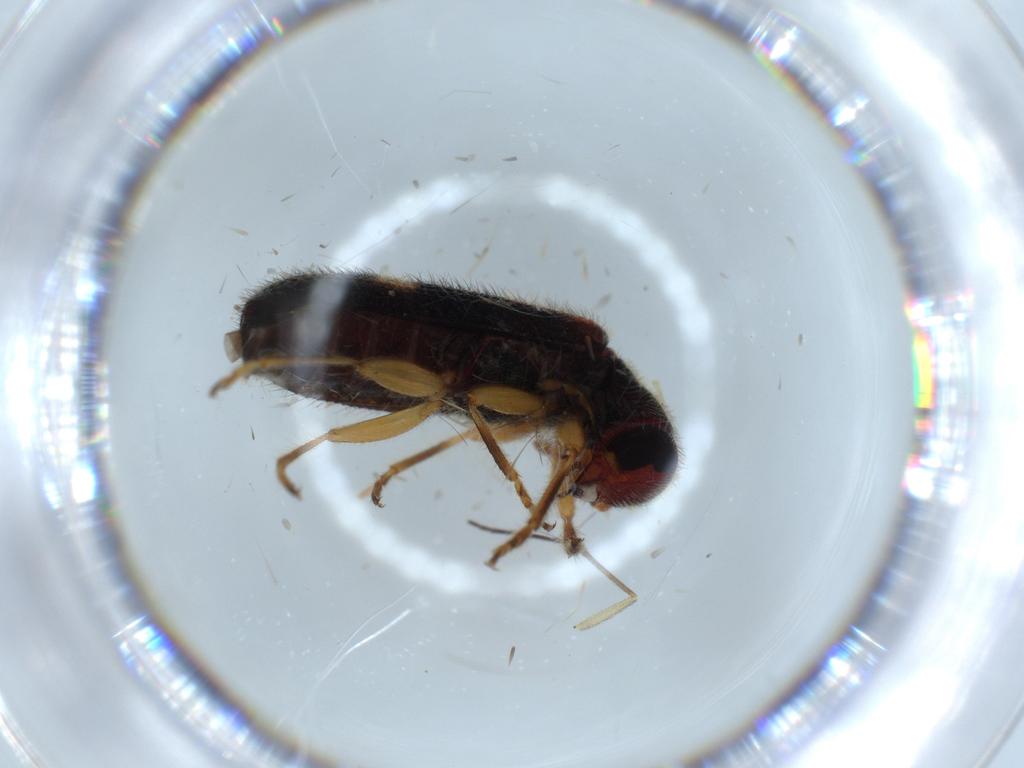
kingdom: Animalia
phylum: Arthropoda
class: Insecta
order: Coleoptera
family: Cleridae
